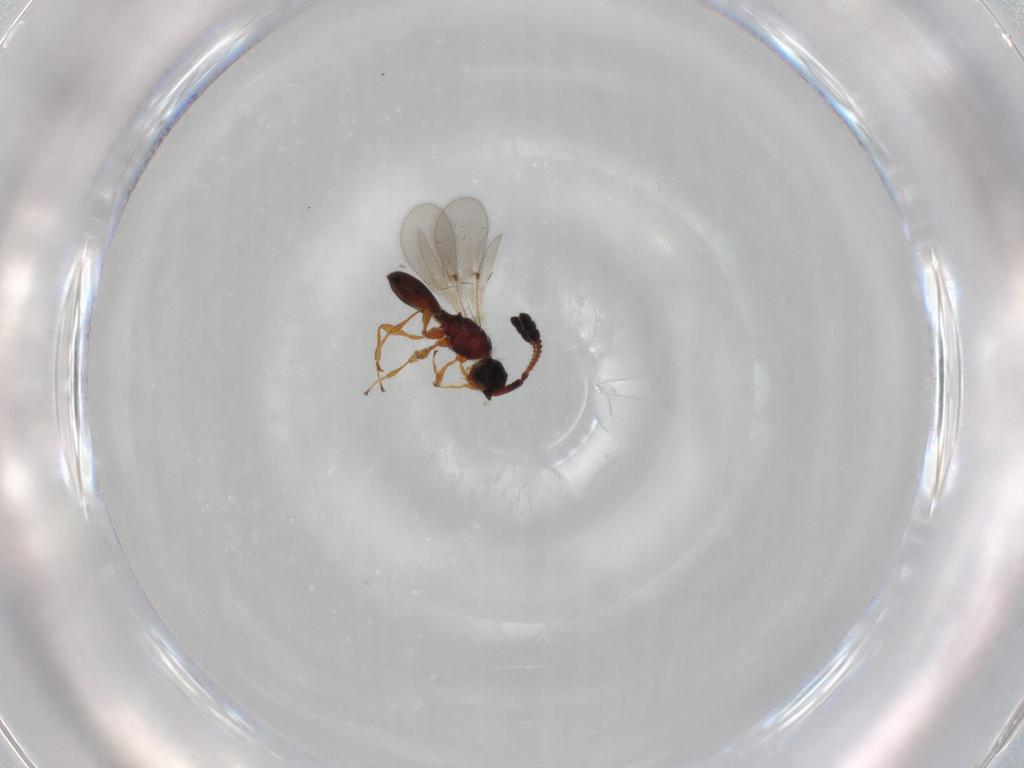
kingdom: Animalia
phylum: Arthropoda
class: Insecta
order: Hymenoptera
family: Diapriidae
